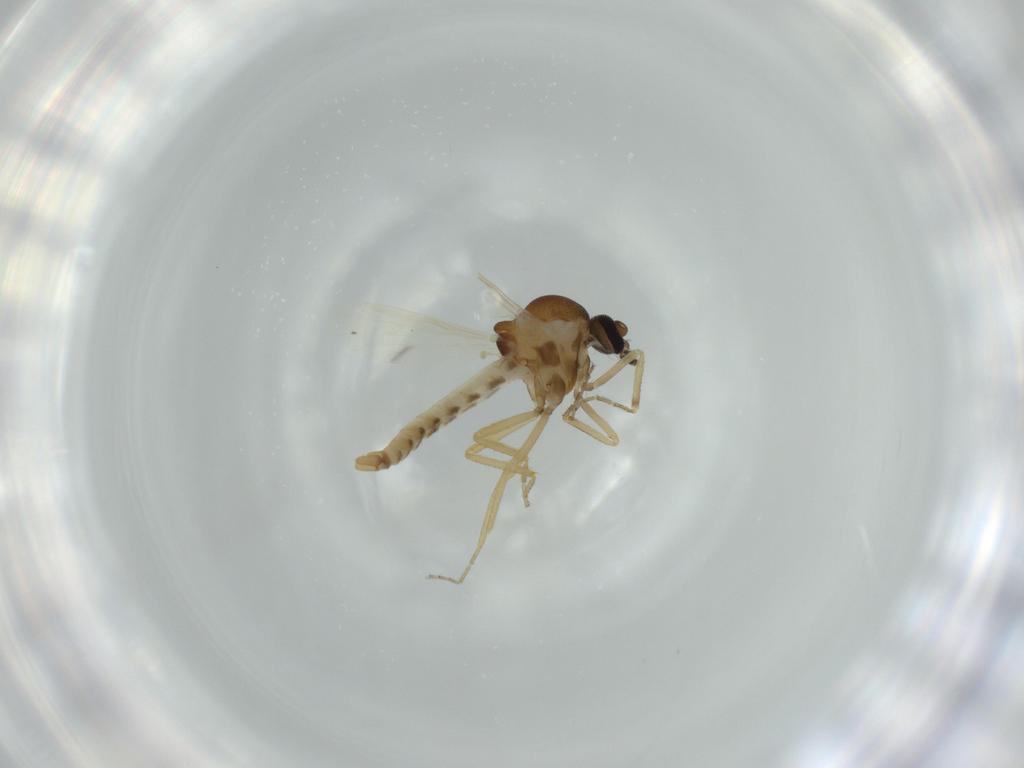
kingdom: Animalia
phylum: Arthropoda
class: Insecta
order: Diptera
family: Ceratopogonidae
